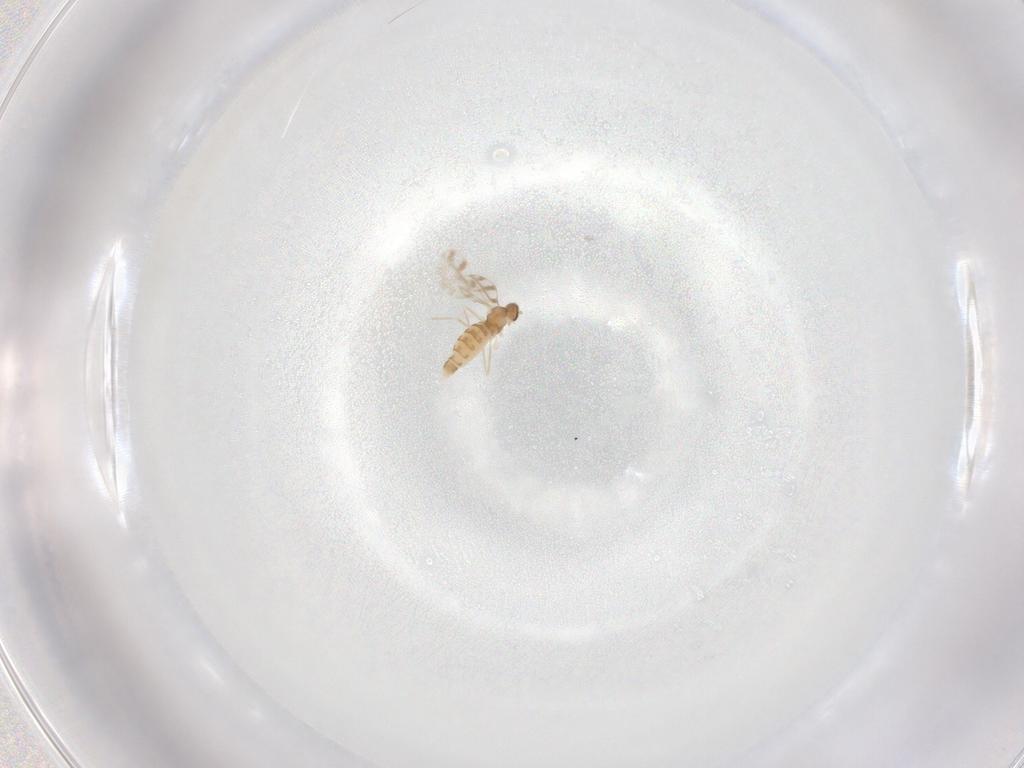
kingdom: Animalia
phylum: Arthropoda
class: Insecta
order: Diptera
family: Cecidomyiidae
